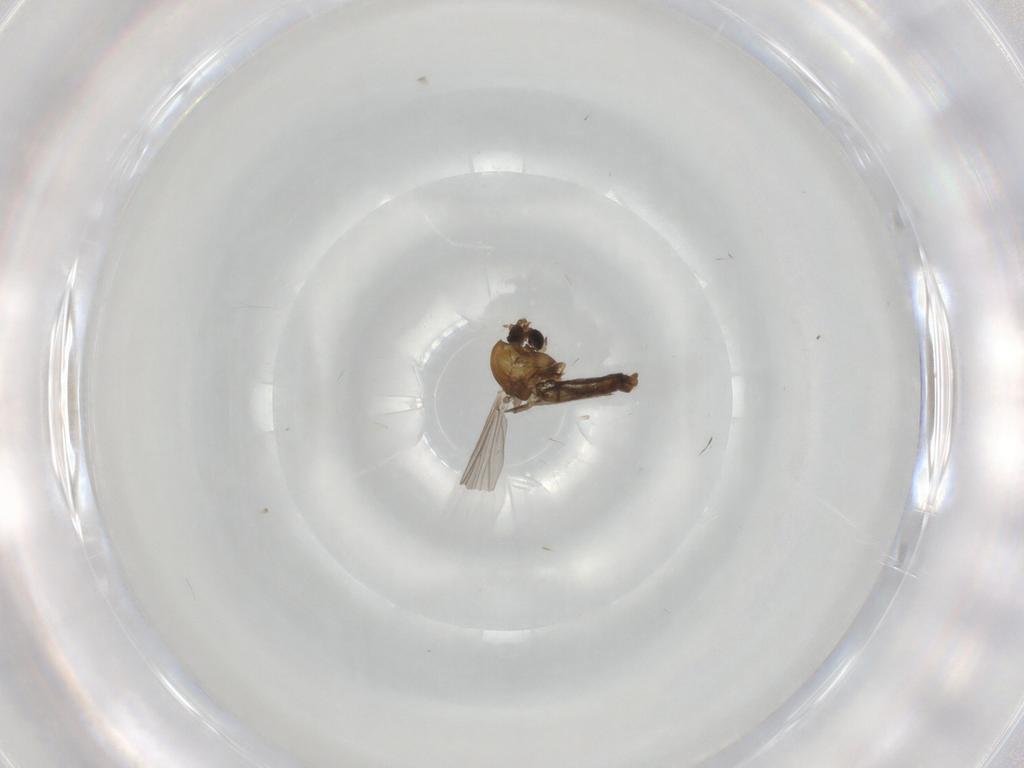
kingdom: Animalia
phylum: Arthropoda
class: Insecta
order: Diptera
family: Chironomidae
